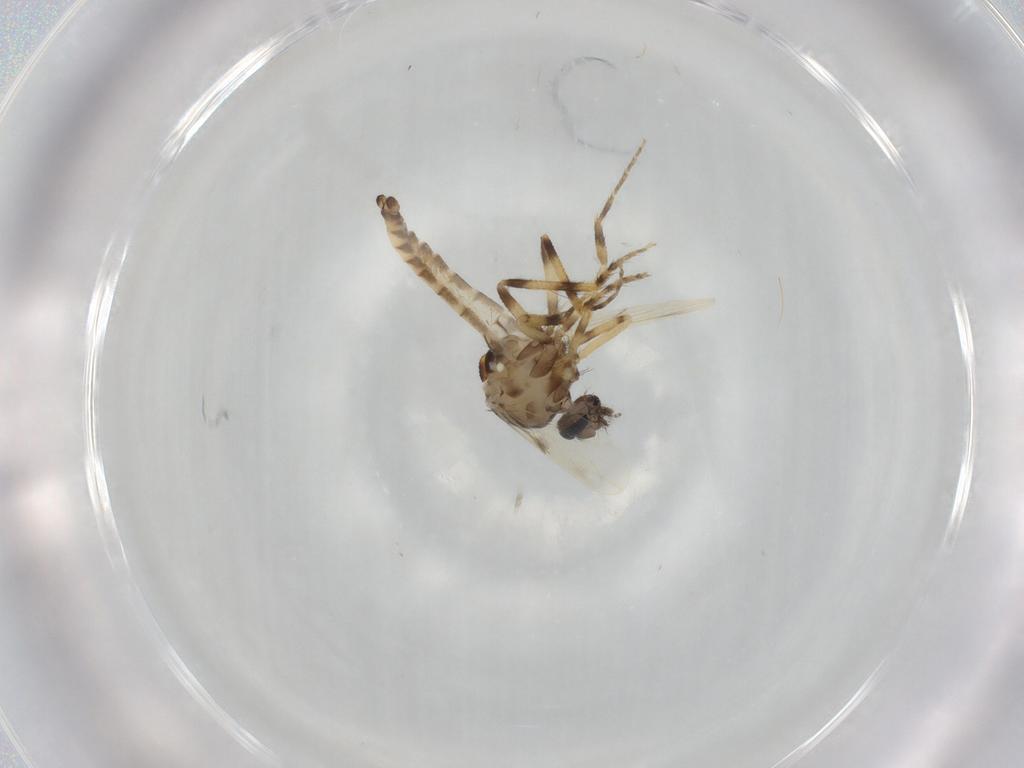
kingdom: Animalia
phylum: Arthropoda
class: Insecta
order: Diptera
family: Ceratopogonidae
